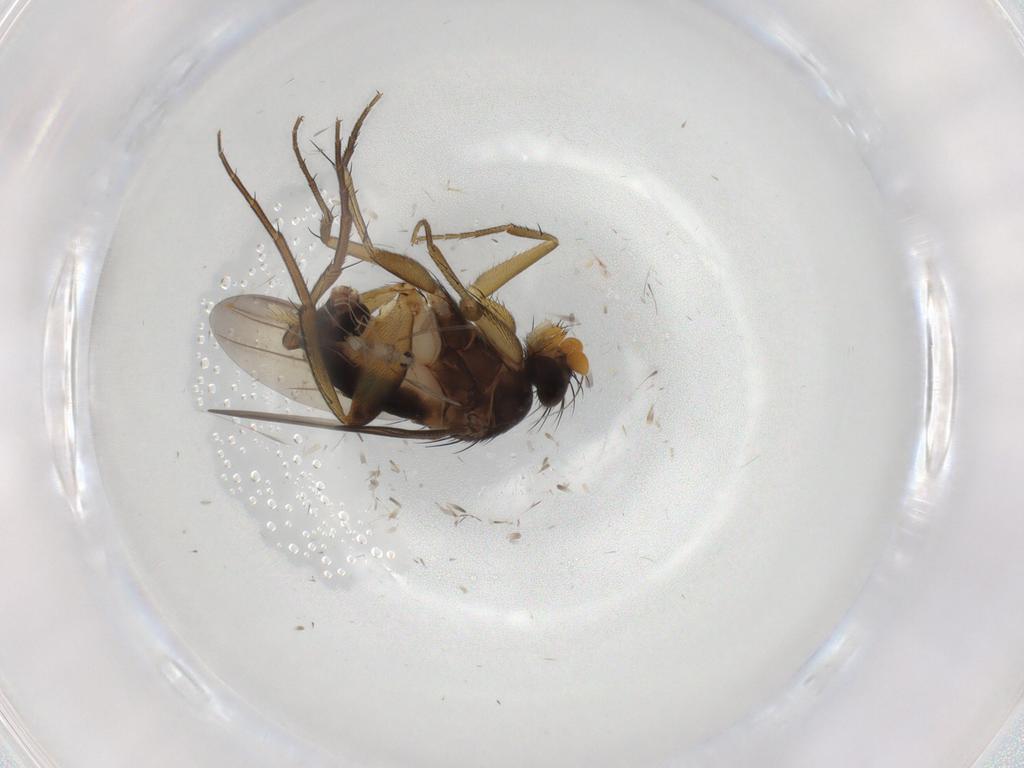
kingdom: Animalia
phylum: Arthropoda
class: Insecta
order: Diptera
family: Phoridae
